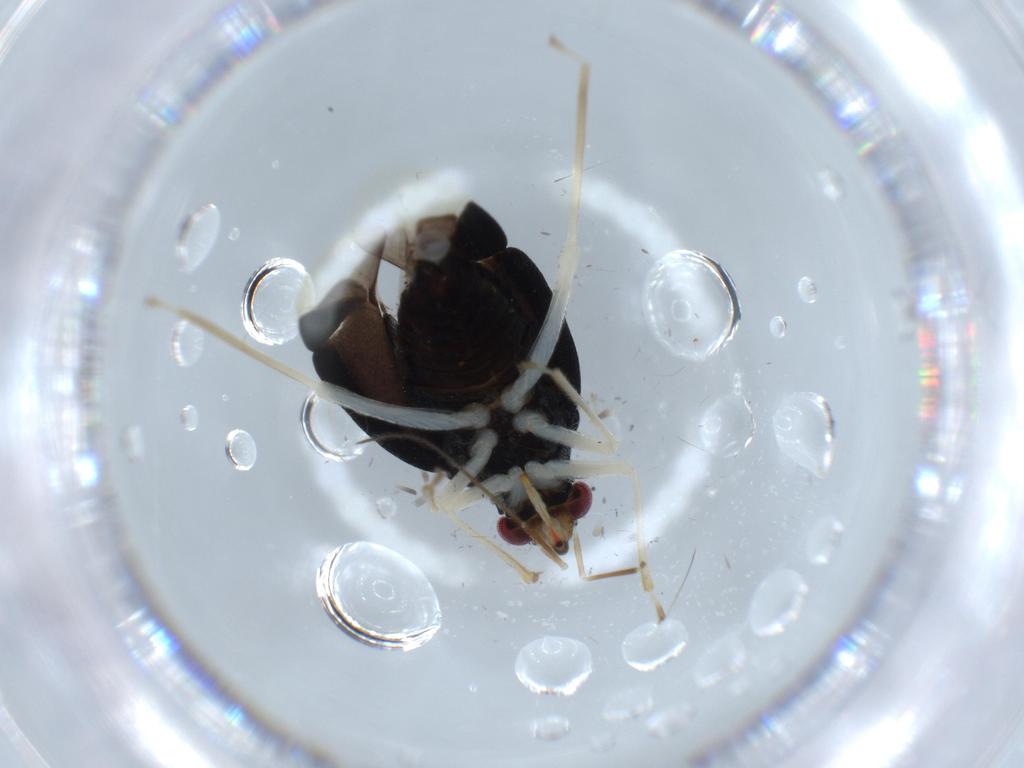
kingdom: Animalia
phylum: Arthropoda
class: Insecta
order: Hemiptera
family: Miridae
